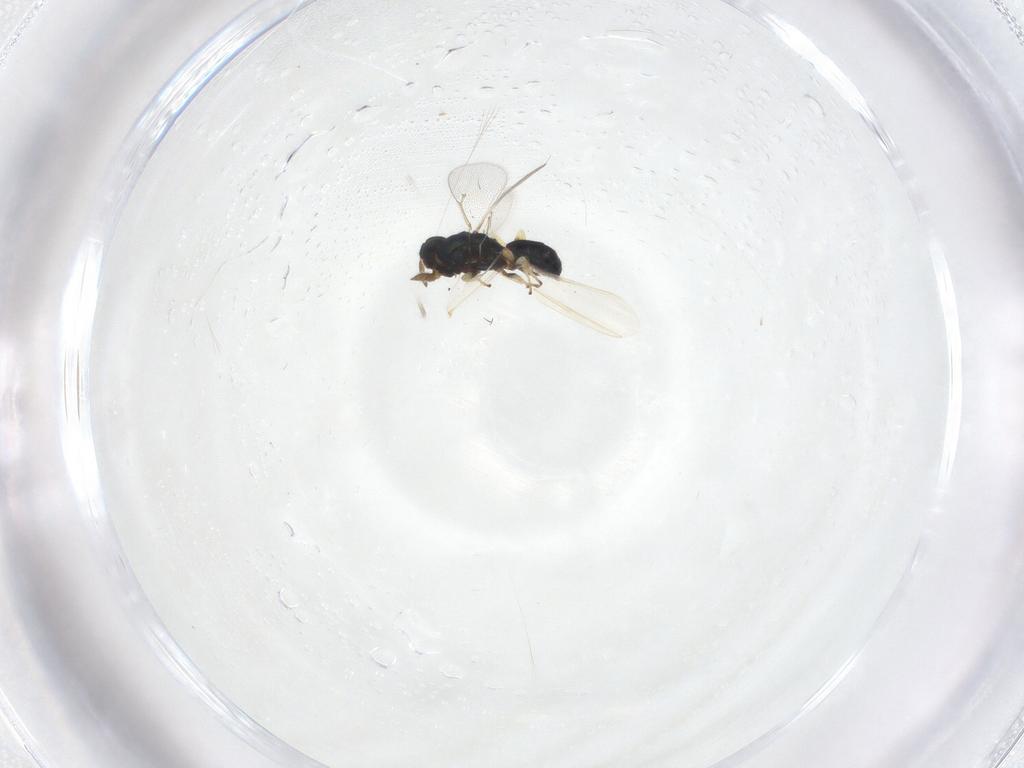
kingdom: Animalia
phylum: Arthropoda
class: Insecta
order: Hymenoptera
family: Eulophidae
